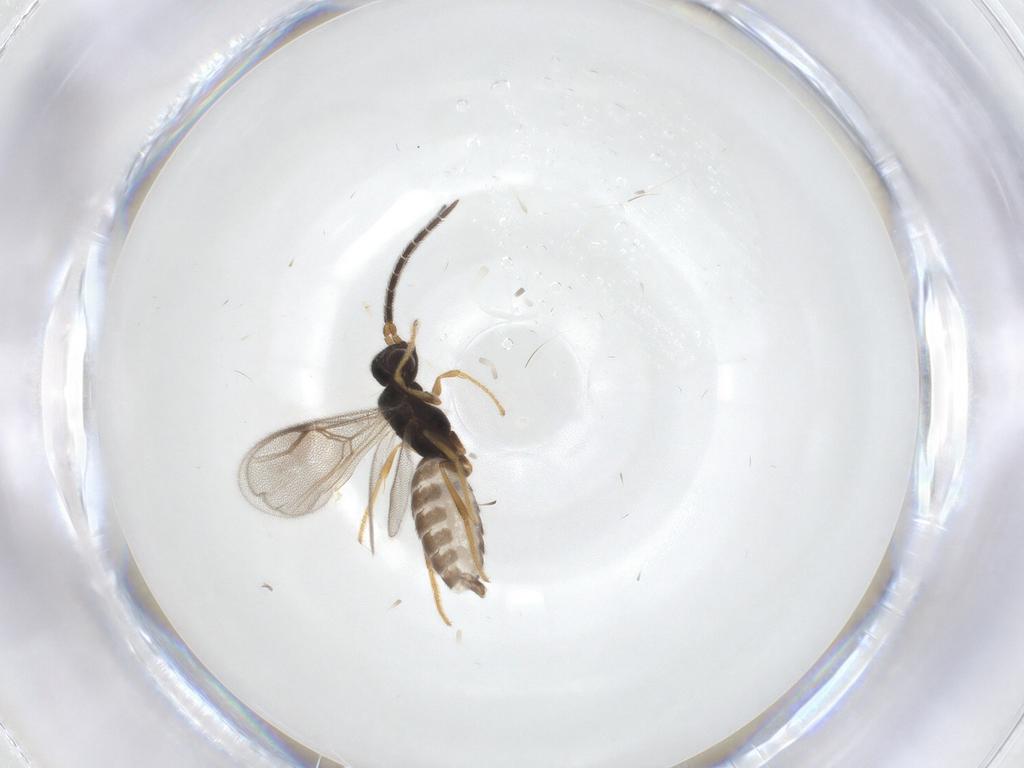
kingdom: Animalia
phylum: Arthropoda
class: Insecta
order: Hymenoptera
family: Dryinidae
